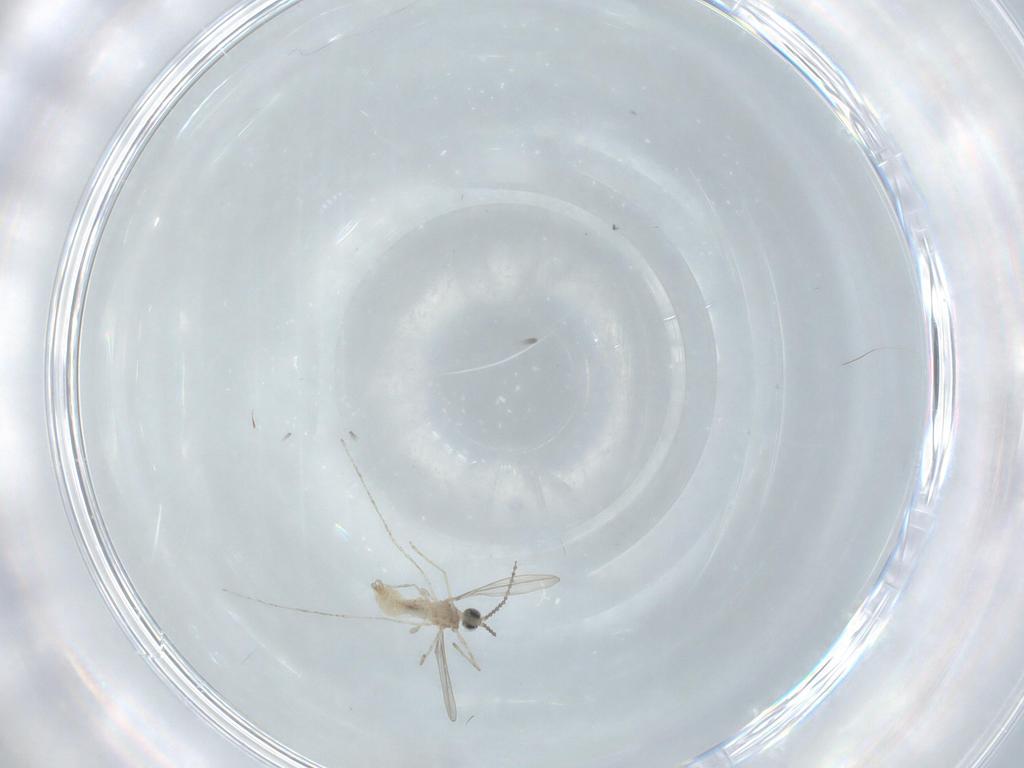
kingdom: Animalia
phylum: Arthropoda
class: Insecta
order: Diptera
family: Cecidomyiidae
